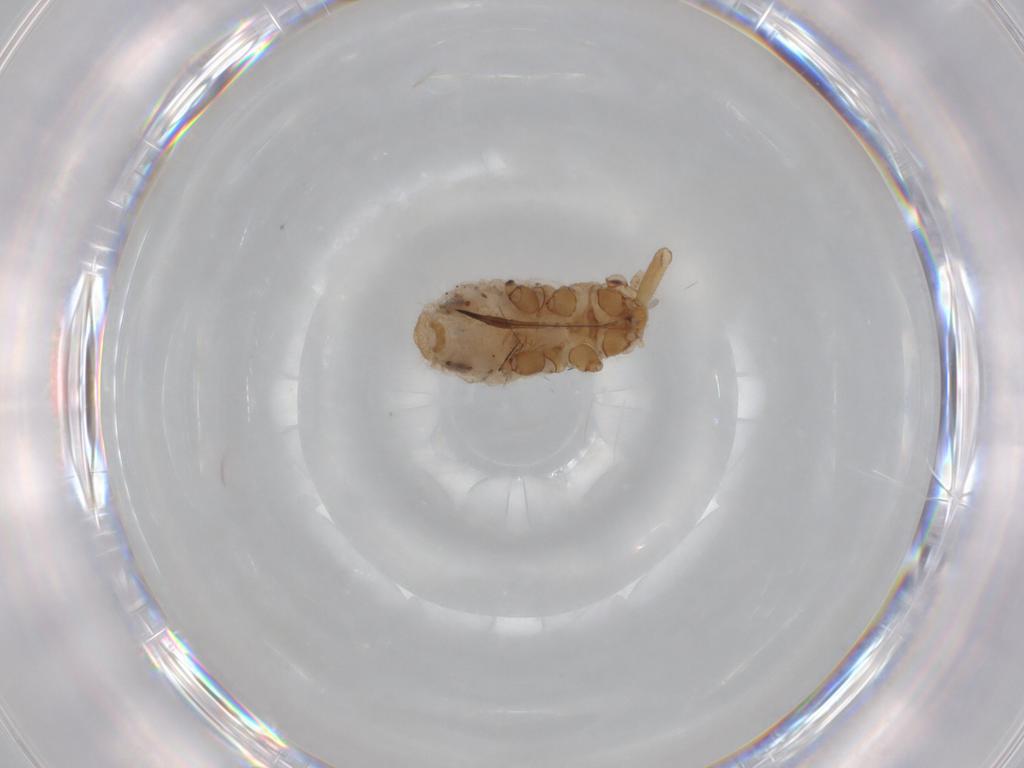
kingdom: Animalia
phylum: Arthropoda
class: Insecta
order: Hemiptera
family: Aphididae
